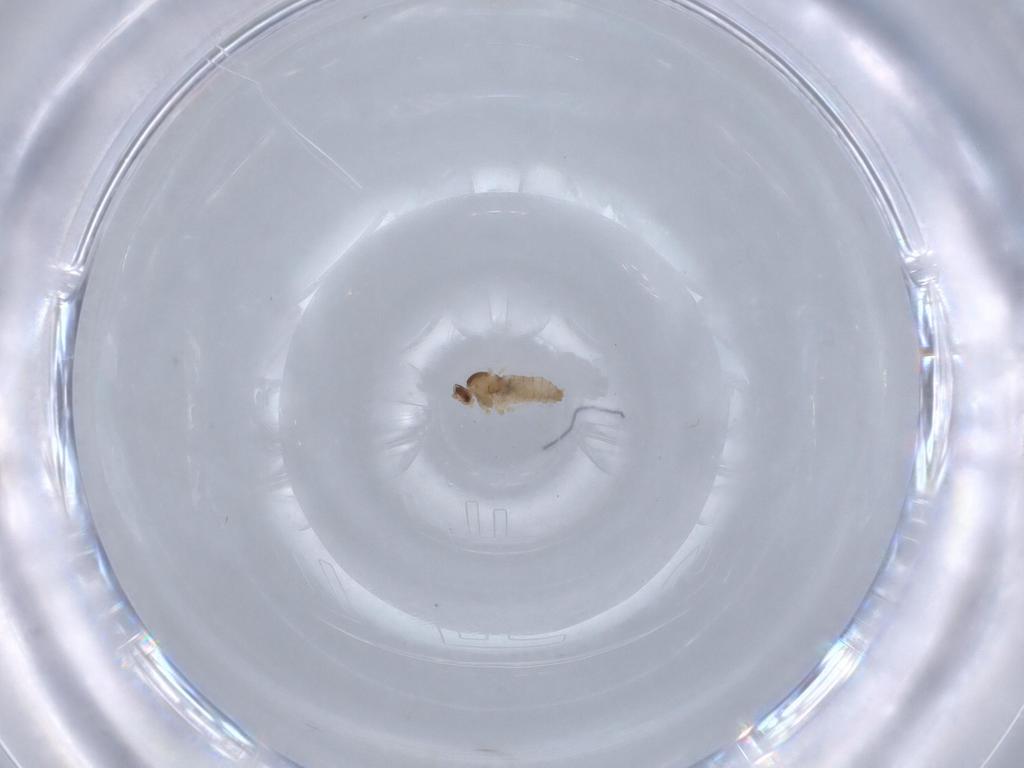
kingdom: Animalia
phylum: Arthropoda
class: Insecta
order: Diptera
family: Cecidomyiidae
